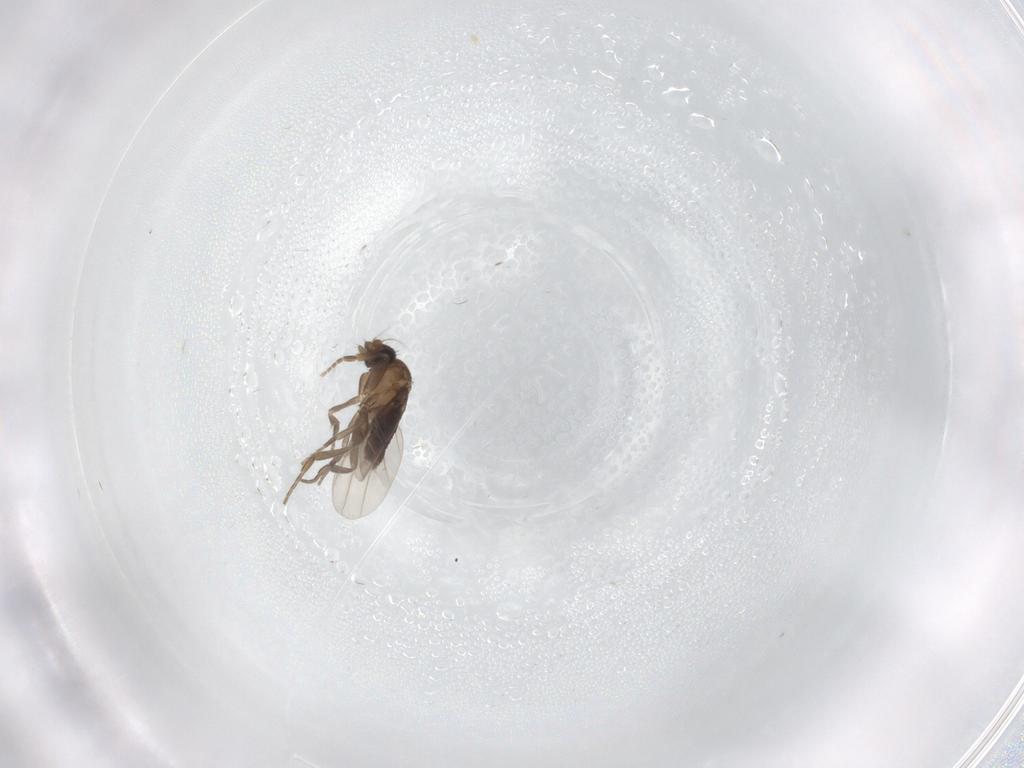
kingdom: Animalia
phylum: Arthropoda
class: Insecta
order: Diptera
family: Phoridae
